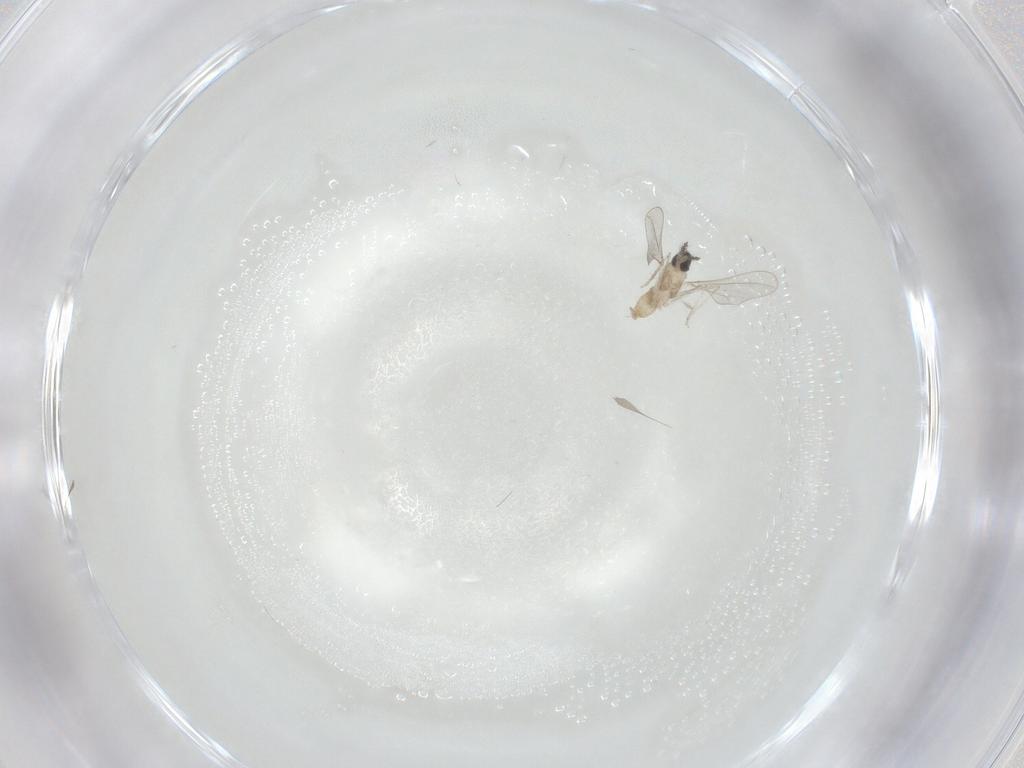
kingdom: Animalia
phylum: Arthropoda
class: Insecta
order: Diptera
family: Cecidomyiidae
